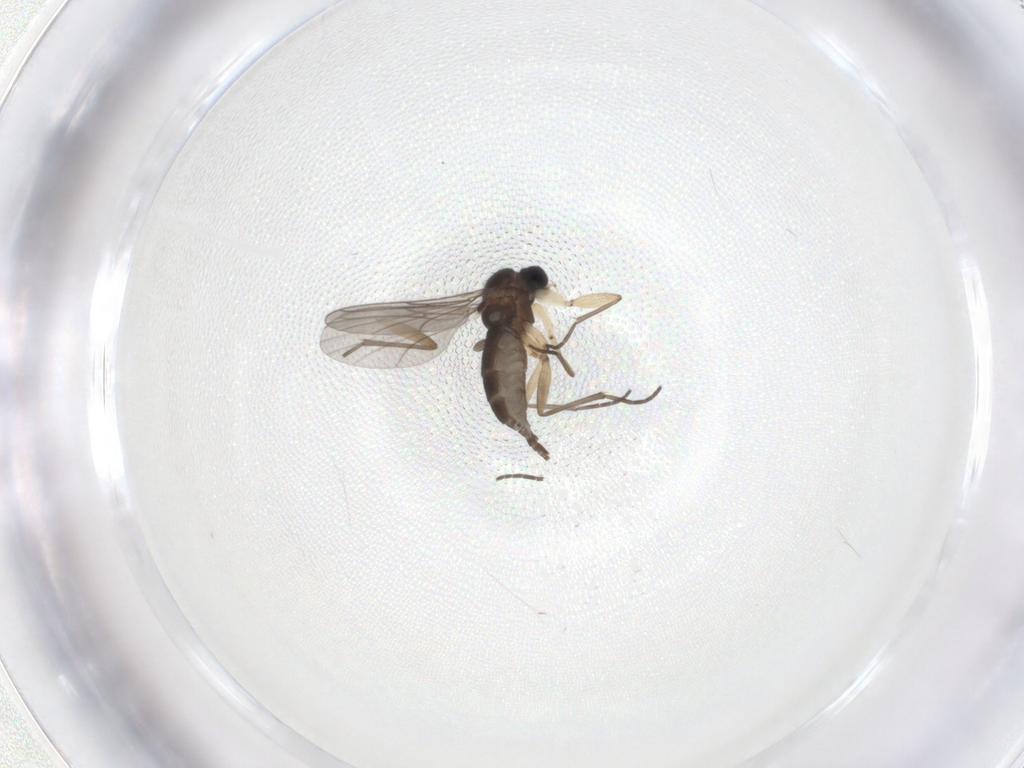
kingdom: Animalia
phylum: Arthropoda
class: Insecta
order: Diptera
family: Sciaridae
